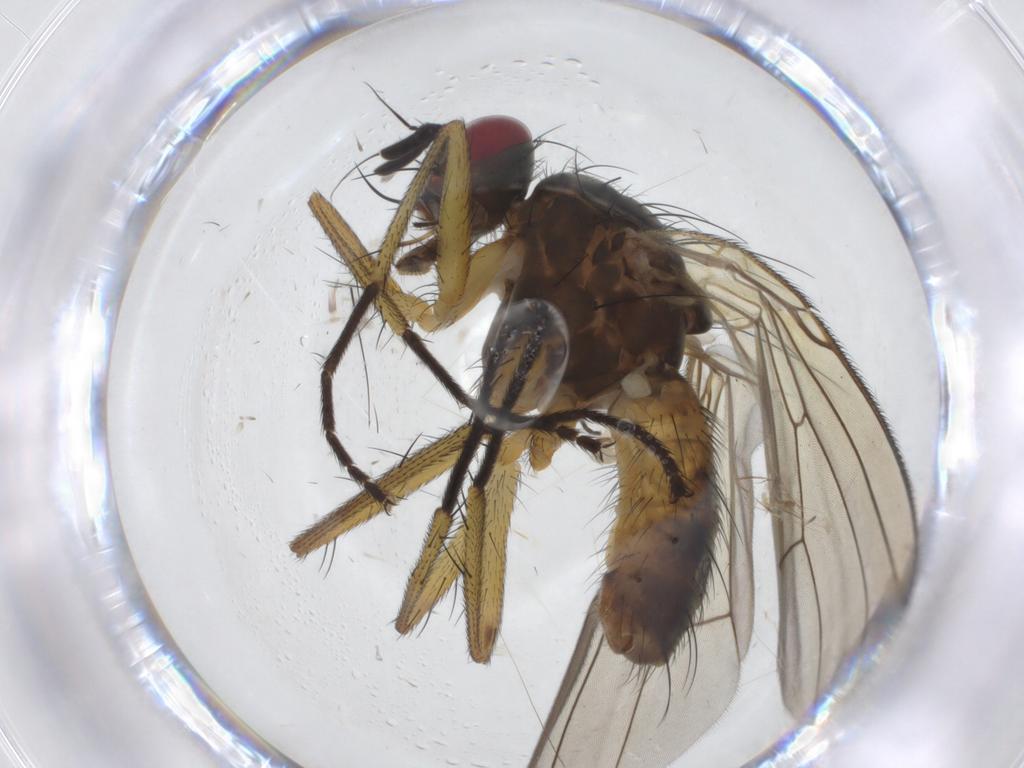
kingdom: Animalia
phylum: Arthropoda
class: Insecta
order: Diptera
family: Muscidae
